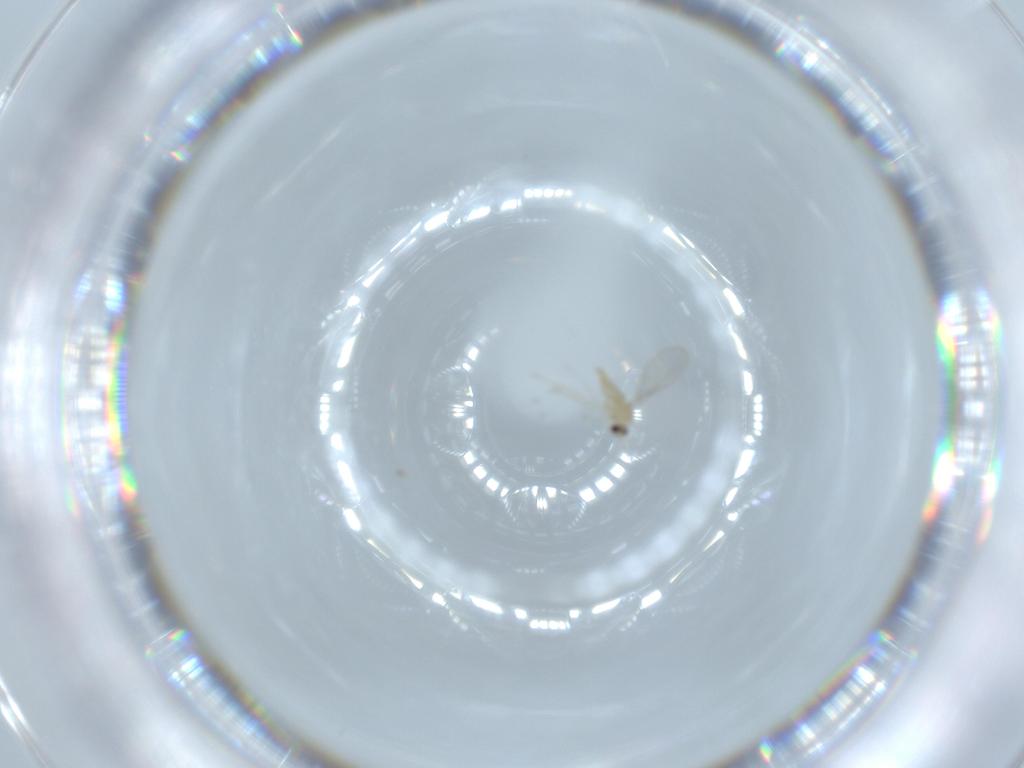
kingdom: Animalia
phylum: Arthropoda
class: Insecta
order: Diptera
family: Cecidomyiidae
